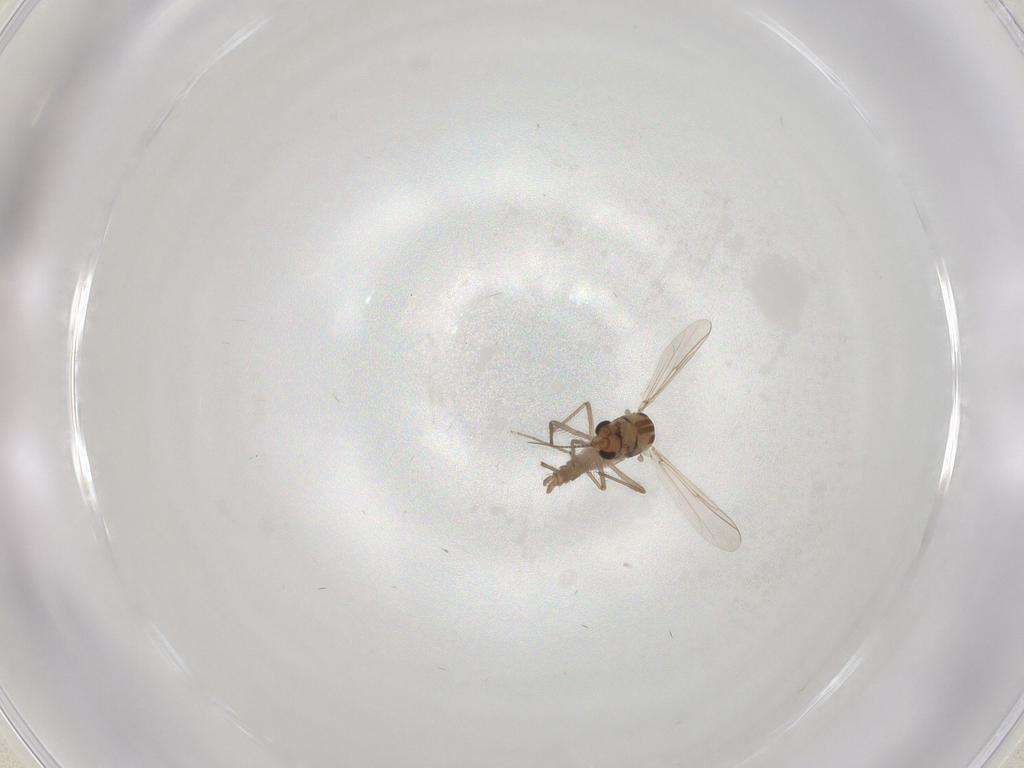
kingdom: Animalia
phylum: Arthropoda
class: Insecta
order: Diptera
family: Chironomidae
